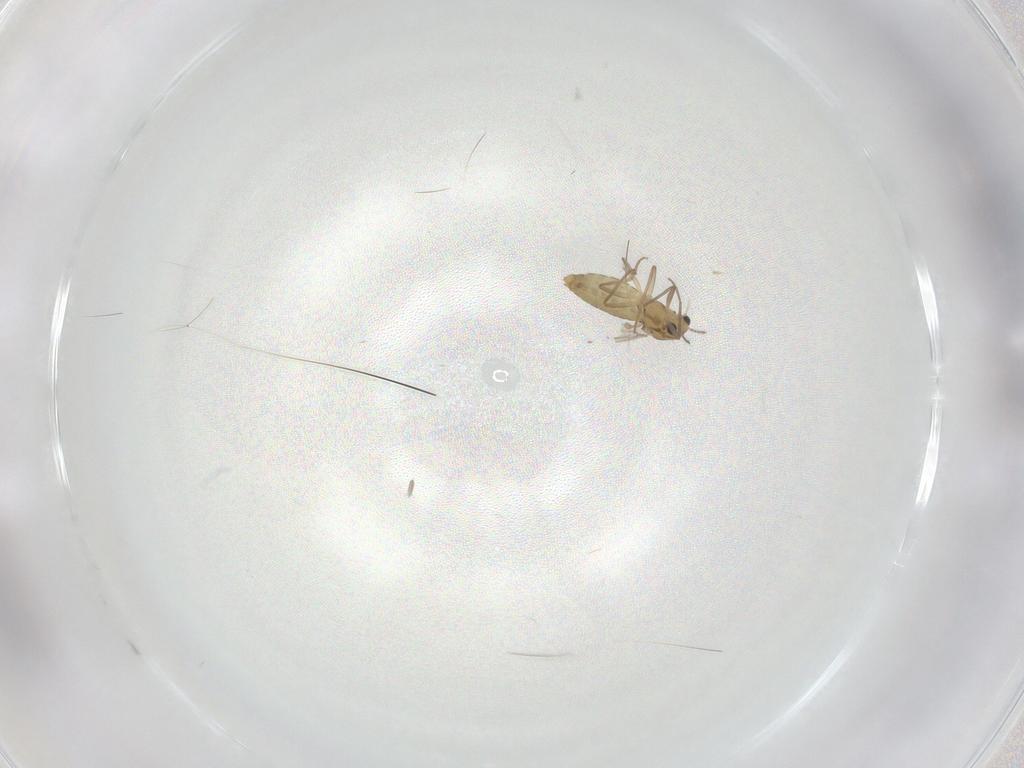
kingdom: Animalia
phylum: Arthropoda
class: Insecta
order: Diptera
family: Chironomidae
